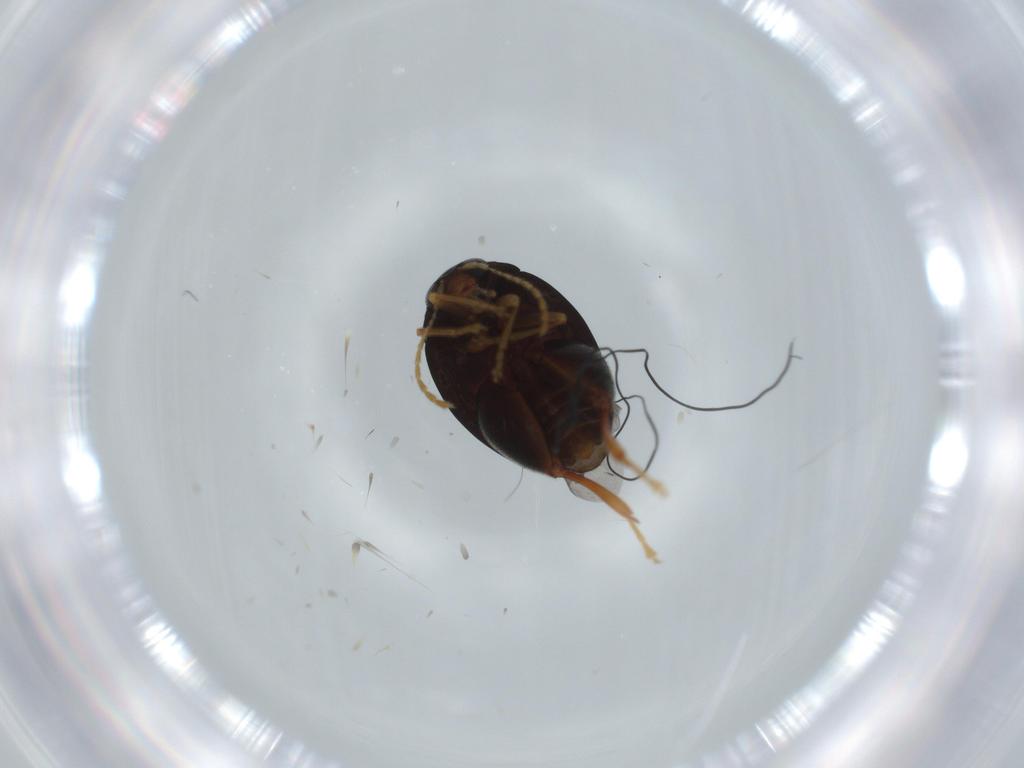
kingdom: Animalia
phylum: Arthropoda
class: Insecta
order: Coleoptera
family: Chrysomelidae
